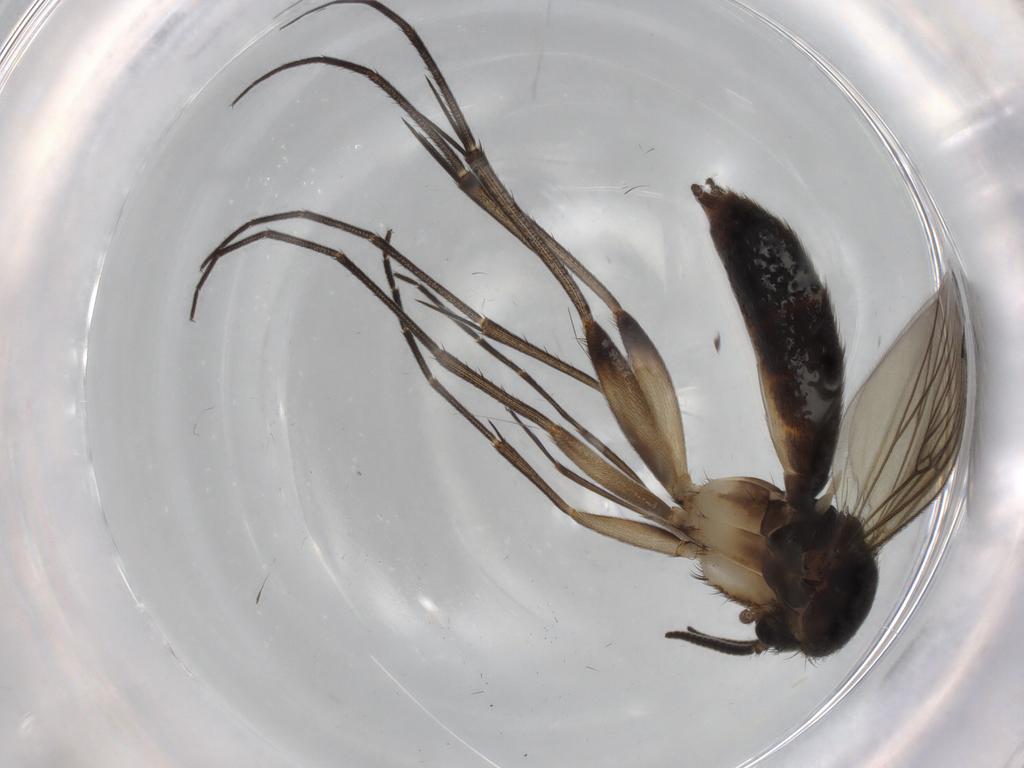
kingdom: Animalia
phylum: Arthropoda
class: Insecta
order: Diptera
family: Mycetophilidae
